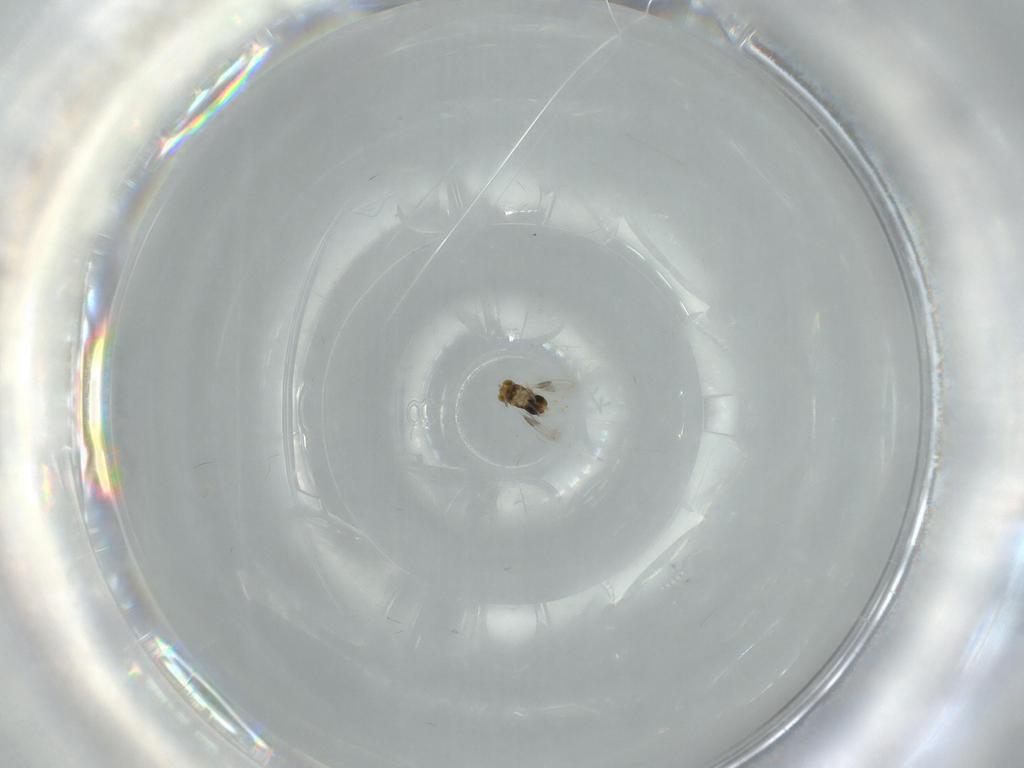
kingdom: Animalia
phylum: Arthropoda
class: Insecta
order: Hymenoptera
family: Aphelinidae
